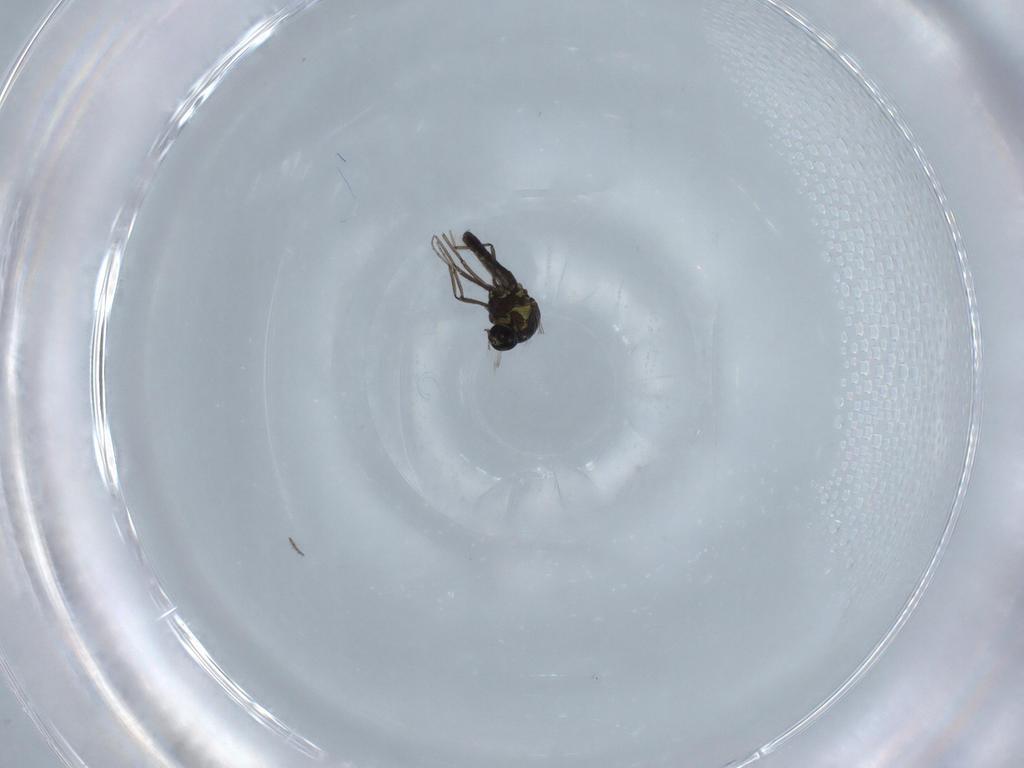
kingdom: Animalia
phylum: Arthropoda
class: Insecta
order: Diptera
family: Ceratopogonidae
